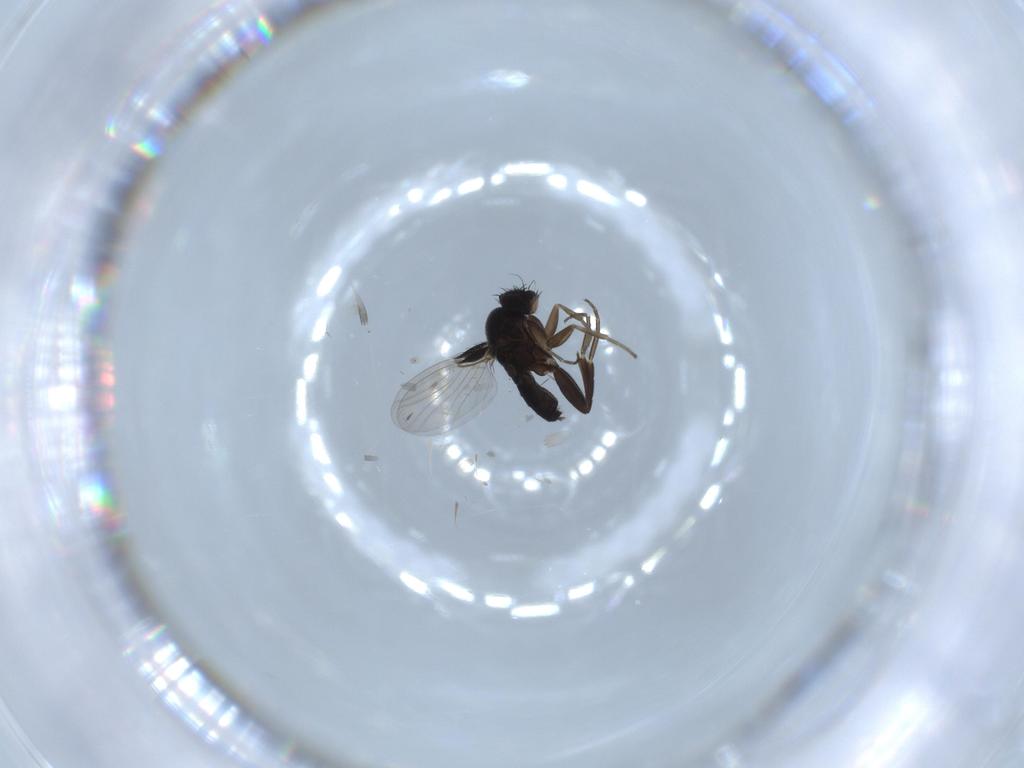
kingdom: Animalia
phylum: Arthropoda
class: Insecta
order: Diptera
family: Phoridae
